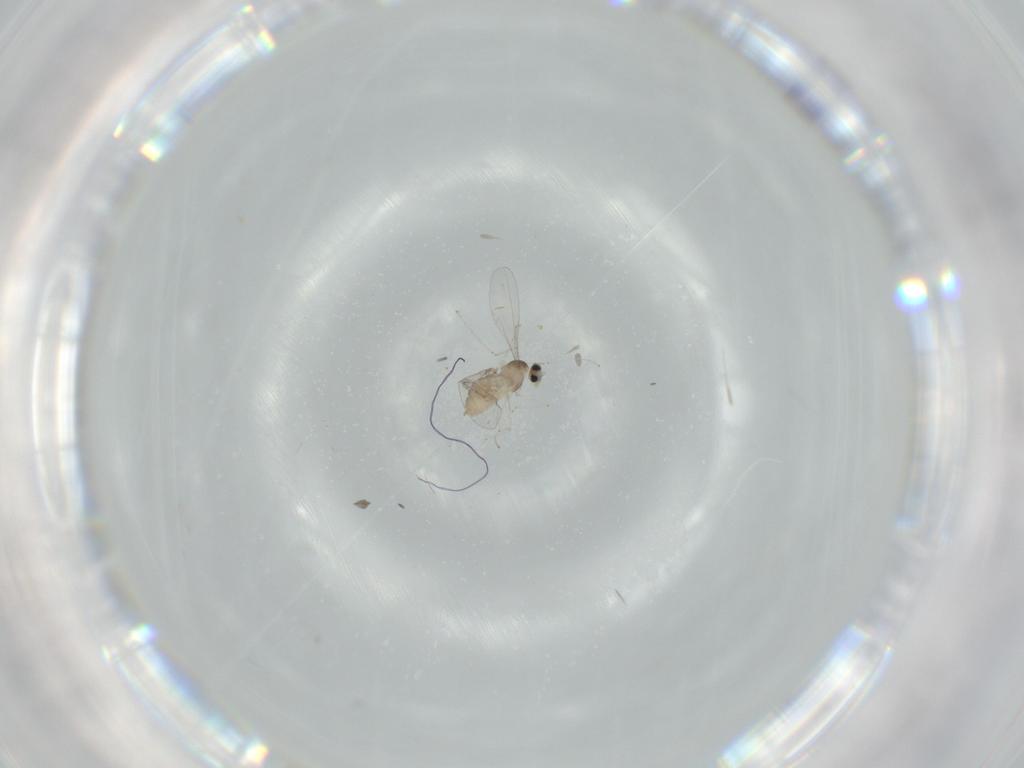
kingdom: Animalia
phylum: Arthropoda
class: Insecta
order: Diptera
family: Cecidomyiidae
